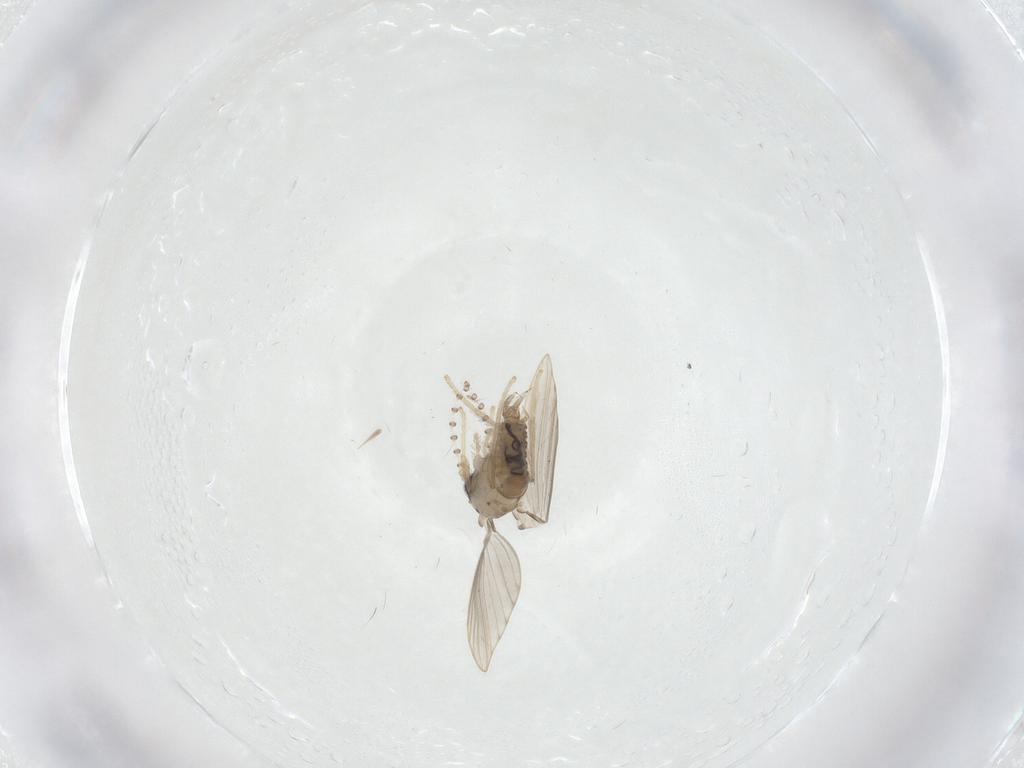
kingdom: Animalia
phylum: Arthropoda
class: Insecta
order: Diptera
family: Psychodidae
